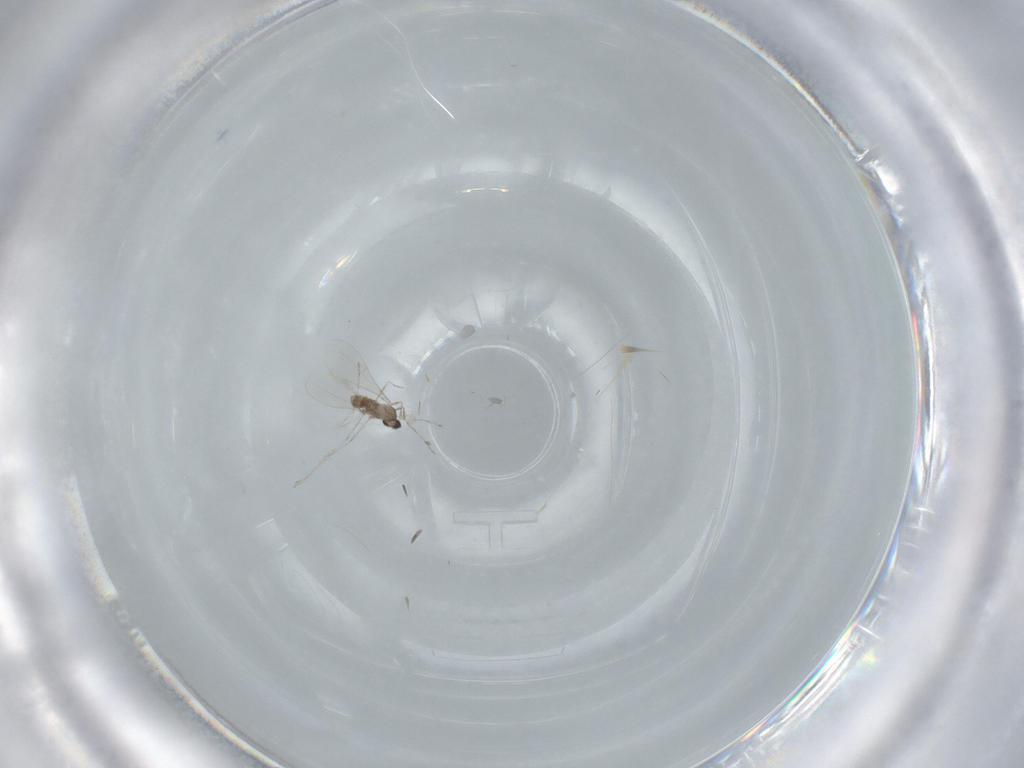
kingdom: Animalia
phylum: Arthropoda
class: Insecta
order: Diptera
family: Cecidomyiidae
